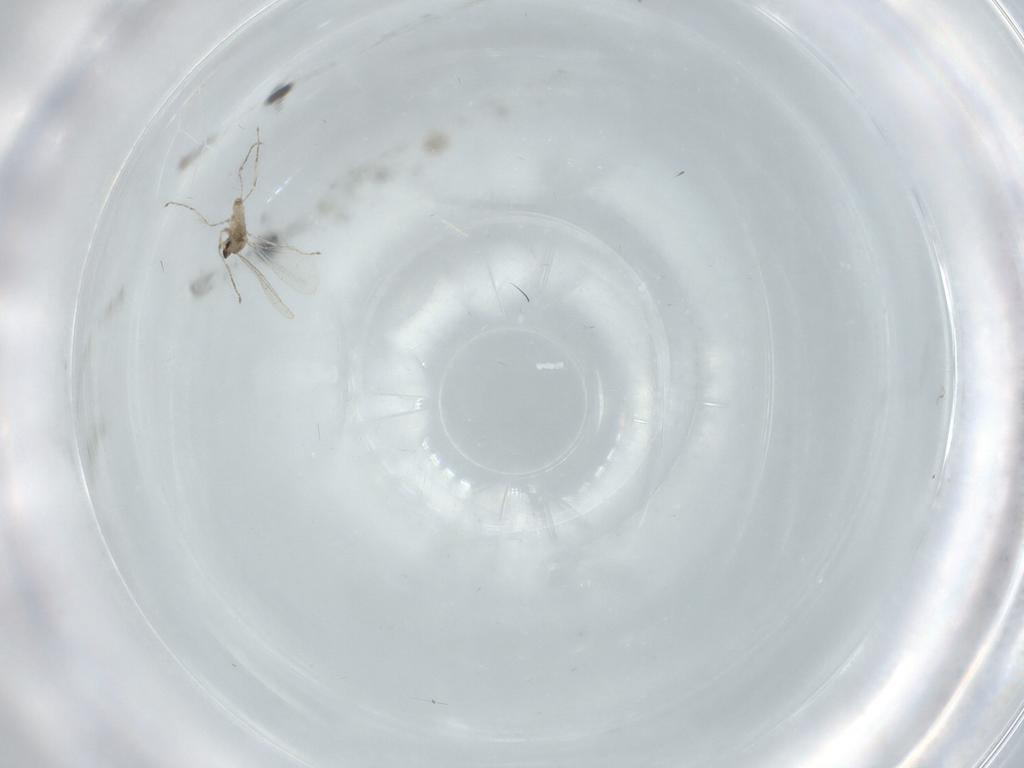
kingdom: Animalia
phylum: Arthropoda
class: Insecta
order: Diptera
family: Cecidomyiidae
